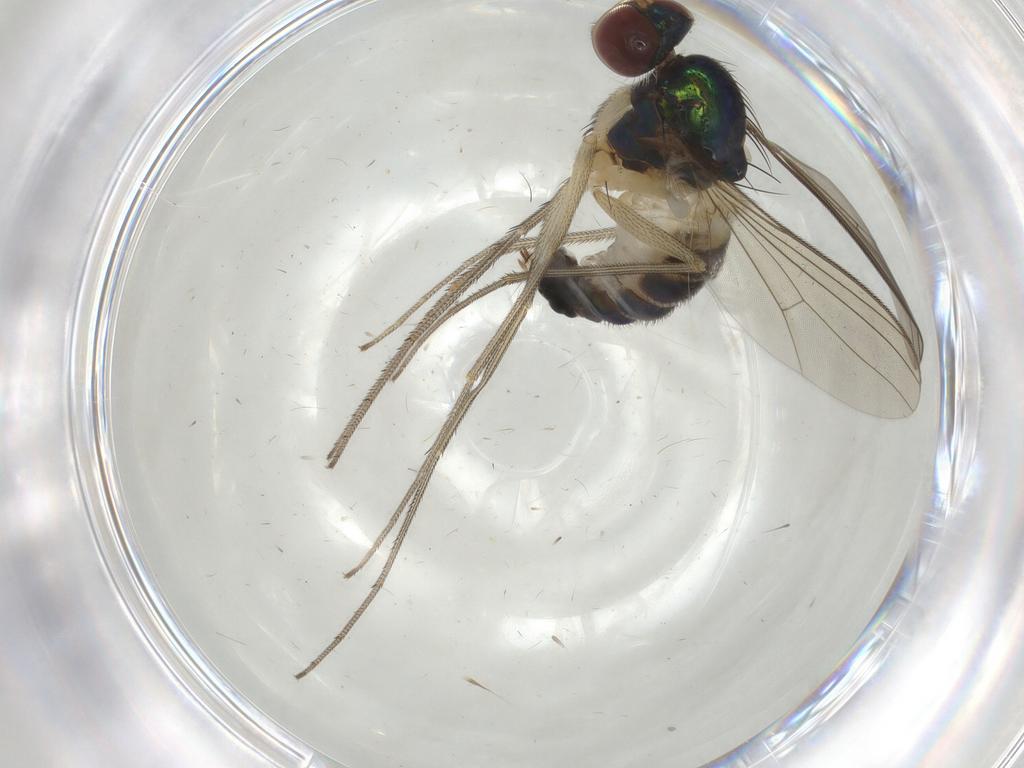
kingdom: Animalia
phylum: Arthropoda
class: Insecta
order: Diptera
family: Dolichopodidae
